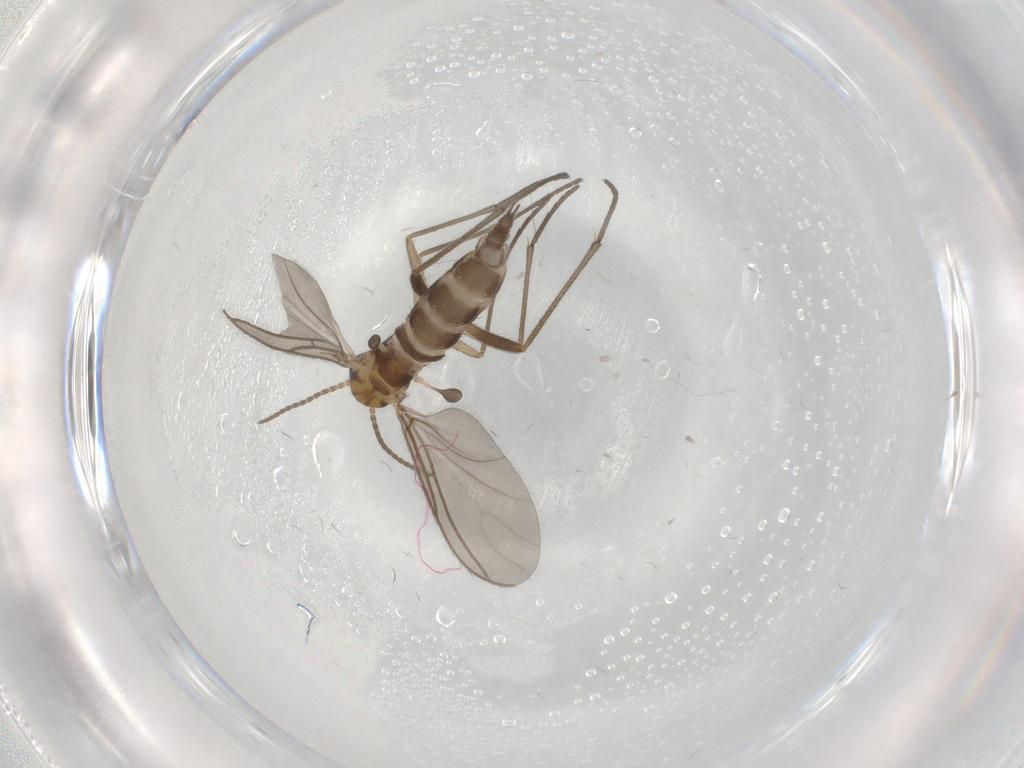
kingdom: Animalia
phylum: Arthropoda
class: Insecta
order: Diptera
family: Sciaridae
